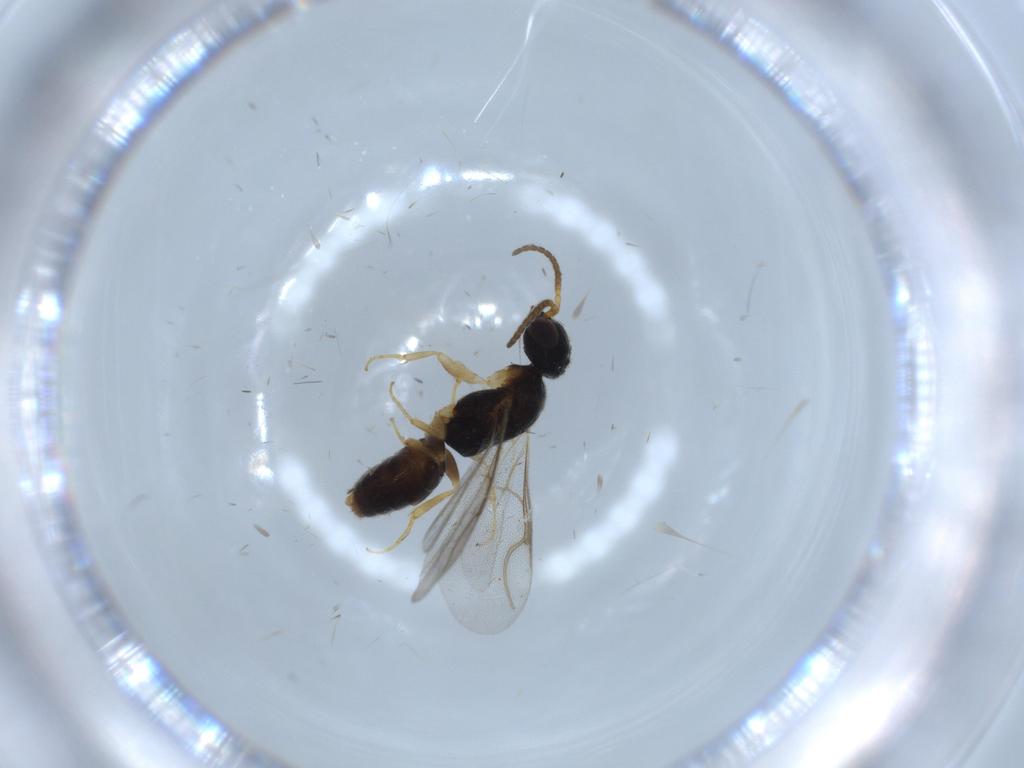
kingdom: Animalia
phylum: Arthropoda
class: Insecta
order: Hymenoptera
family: Bethylidae
